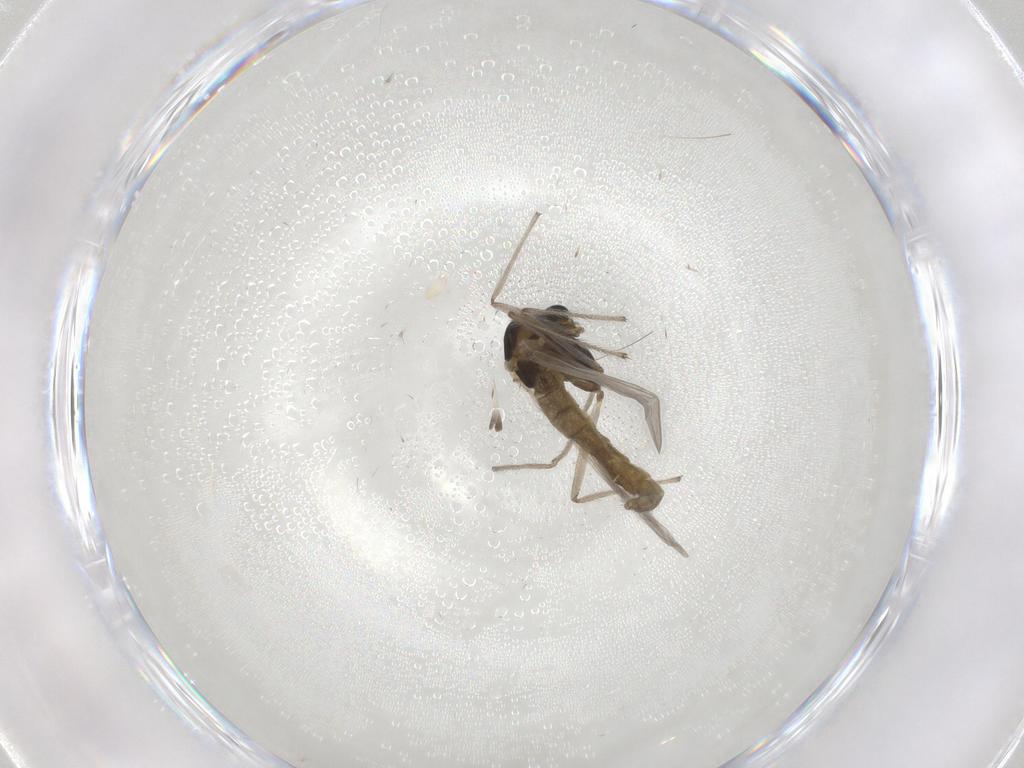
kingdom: Animalia
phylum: Arthropoda
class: Insecta
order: Diptera
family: Chironomidae
